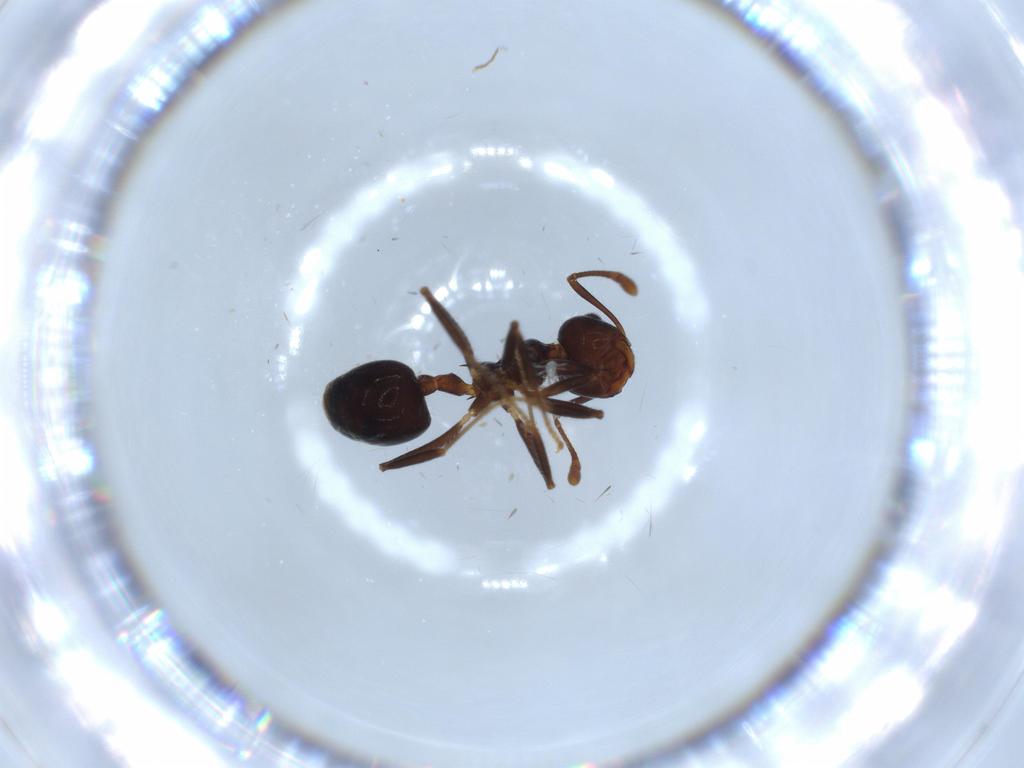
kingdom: Animalia
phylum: Arthropoda
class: Insecta
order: Hymenoptera
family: Formicidae
